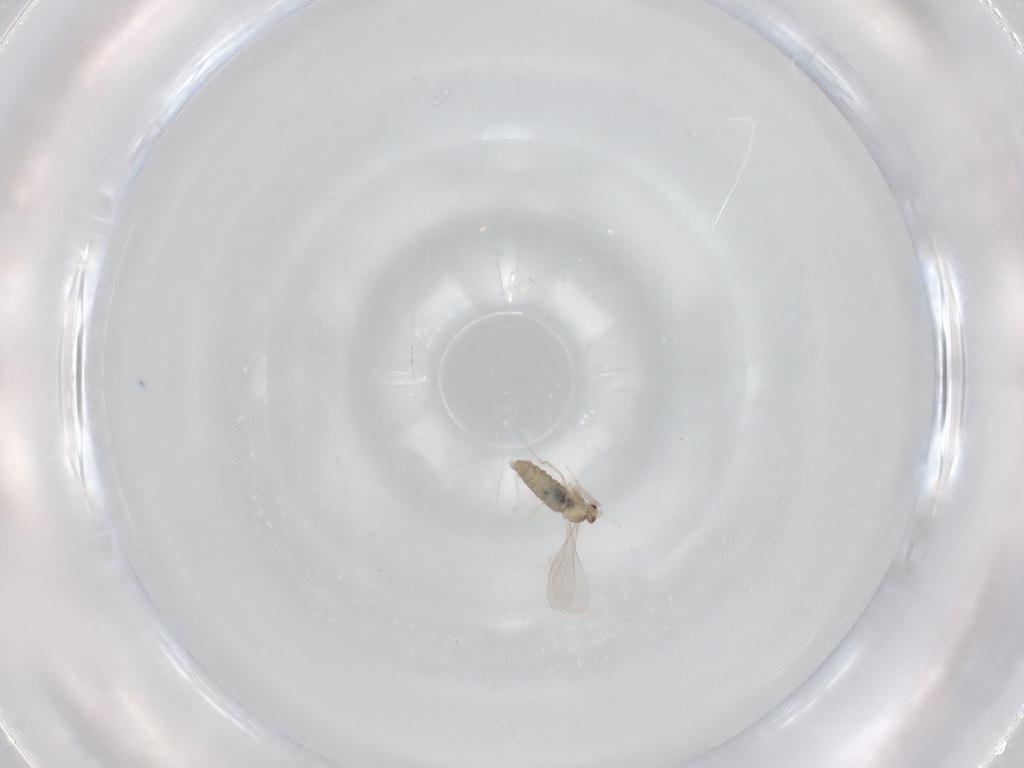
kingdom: Animalia
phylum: Arthropoda
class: Insecta
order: Diptera
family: Cecidomyiidae
